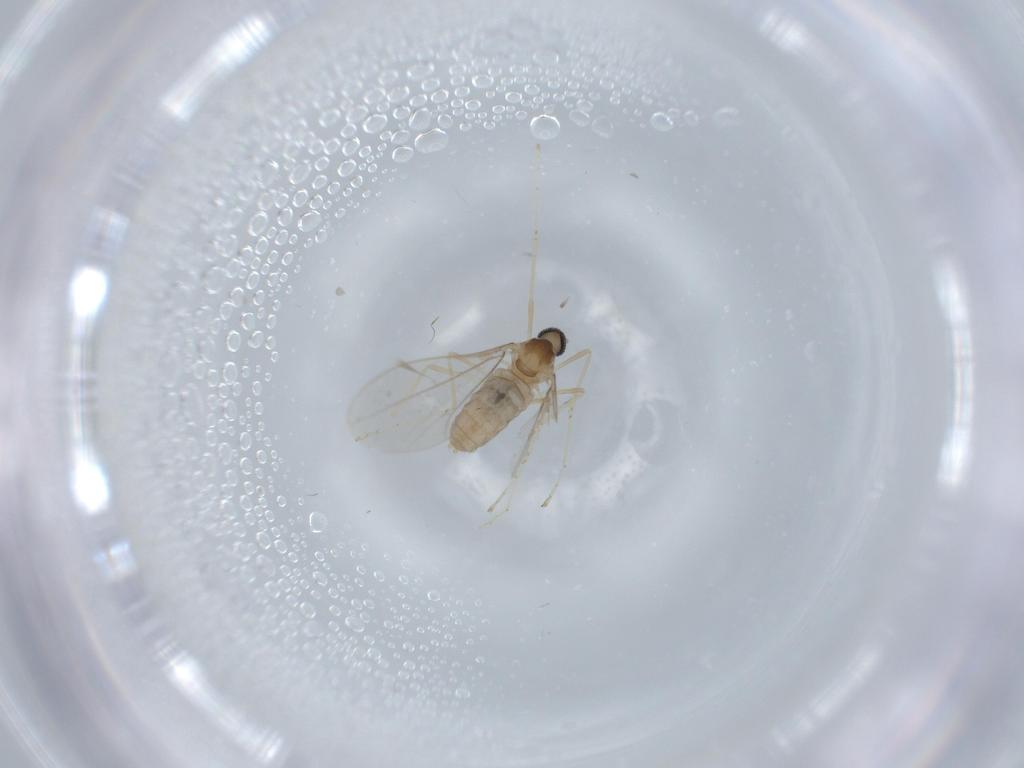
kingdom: Animalia
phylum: Arthropoda
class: Insecta
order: Diptera
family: Cecidomyiidae
